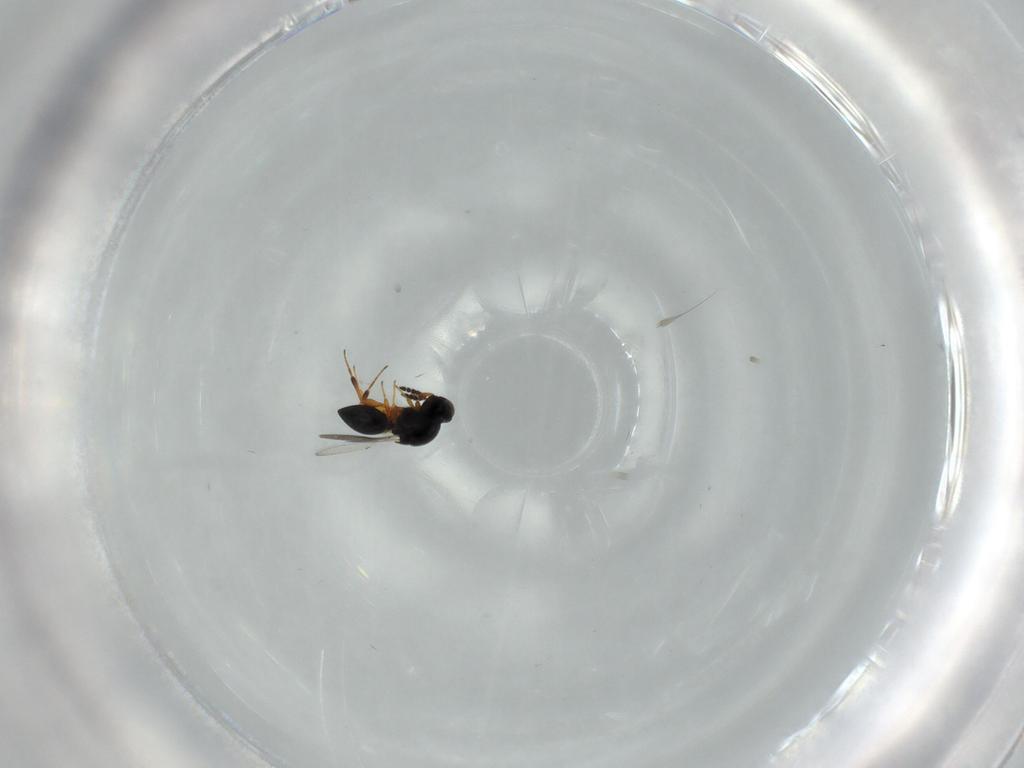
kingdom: Animalia
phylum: Arthropoda
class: Insecta
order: Hymenoptera
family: Platygastridae
